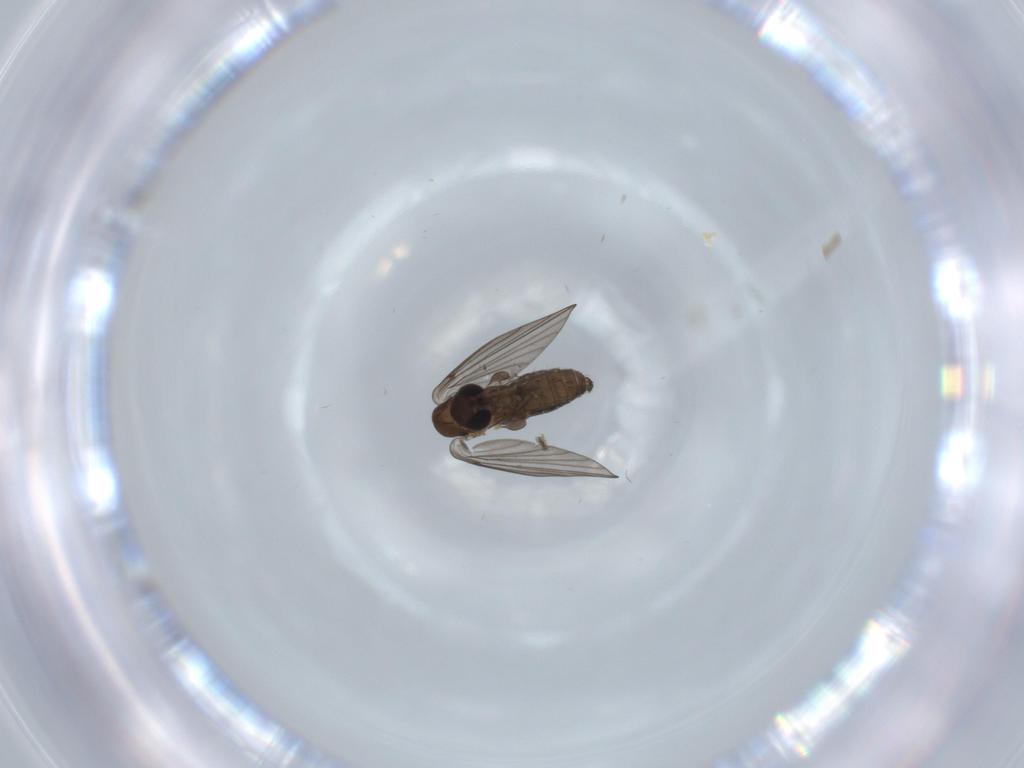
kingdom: Animalia
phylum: Arthropoda
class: Insecta
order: Diptera
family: Psychodidae
